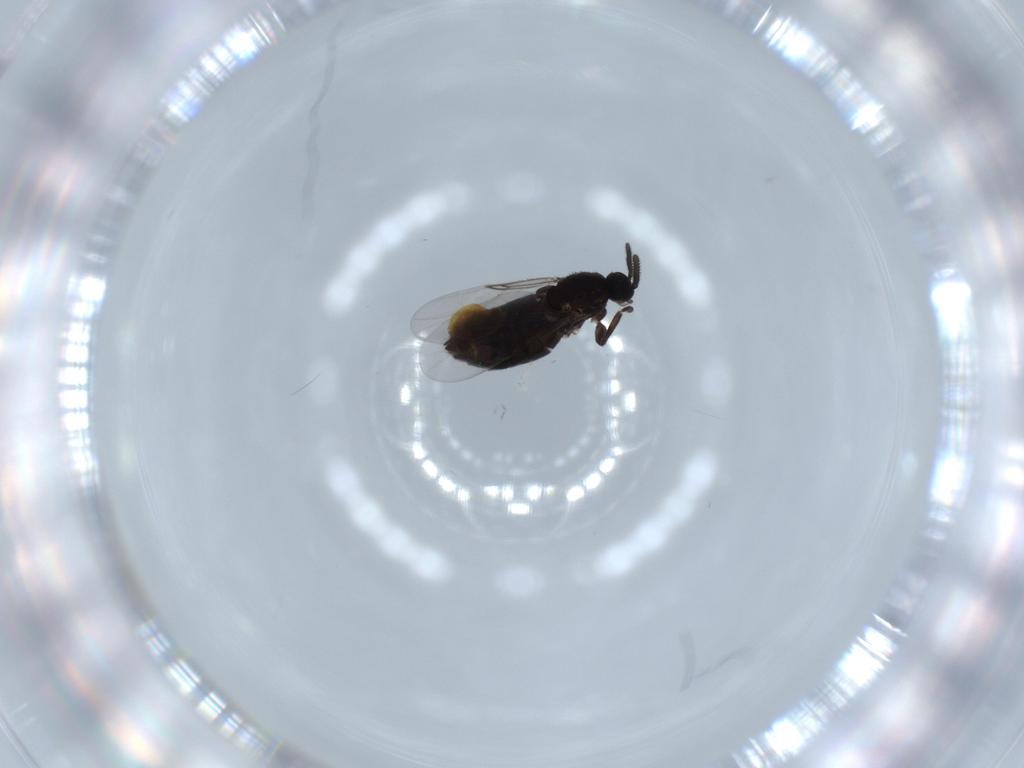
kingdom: Animalia
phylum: Arthropoda
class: Insecta
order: Diptera
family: Scatopsidae
